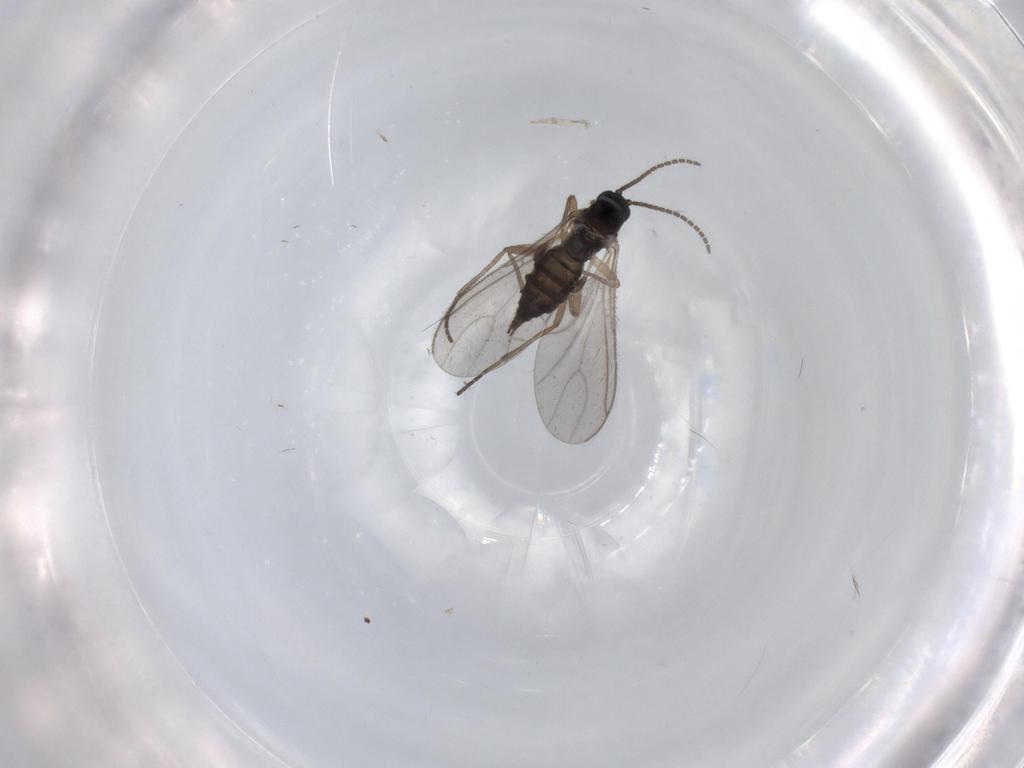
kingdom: Animalia
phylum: Arthropoda
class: Insecta
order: Diptera
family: Sciaridae
